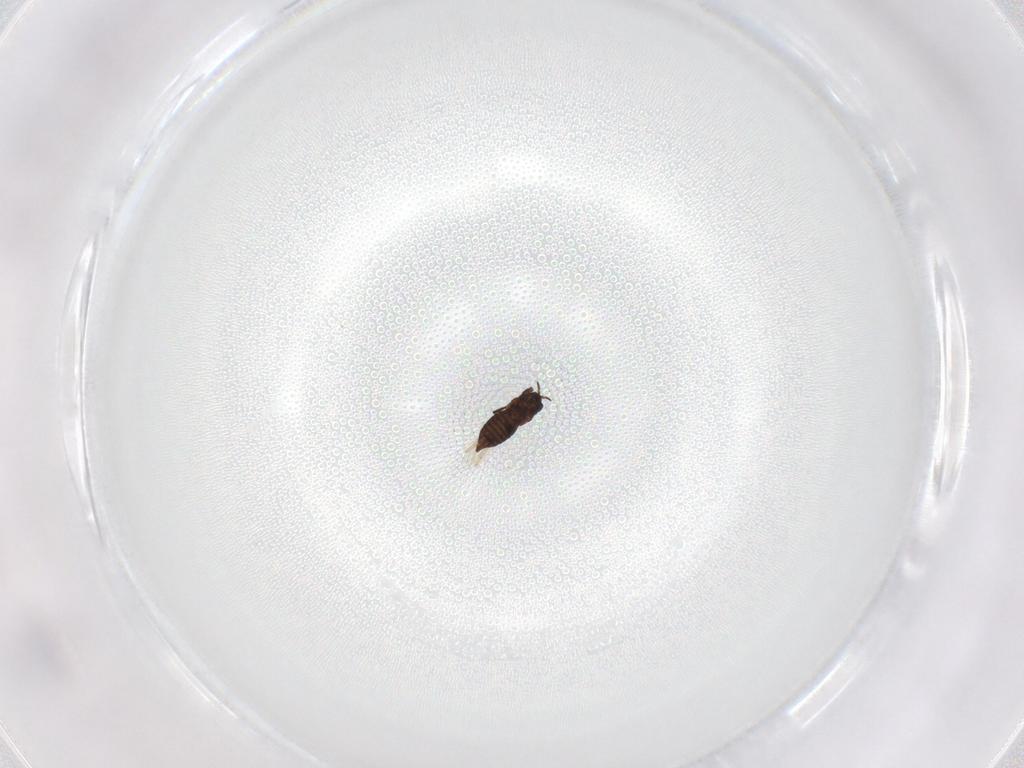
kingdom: Animalia
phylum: Arthropoda
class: Insecta
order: Thysanoptera
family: Thripidae
